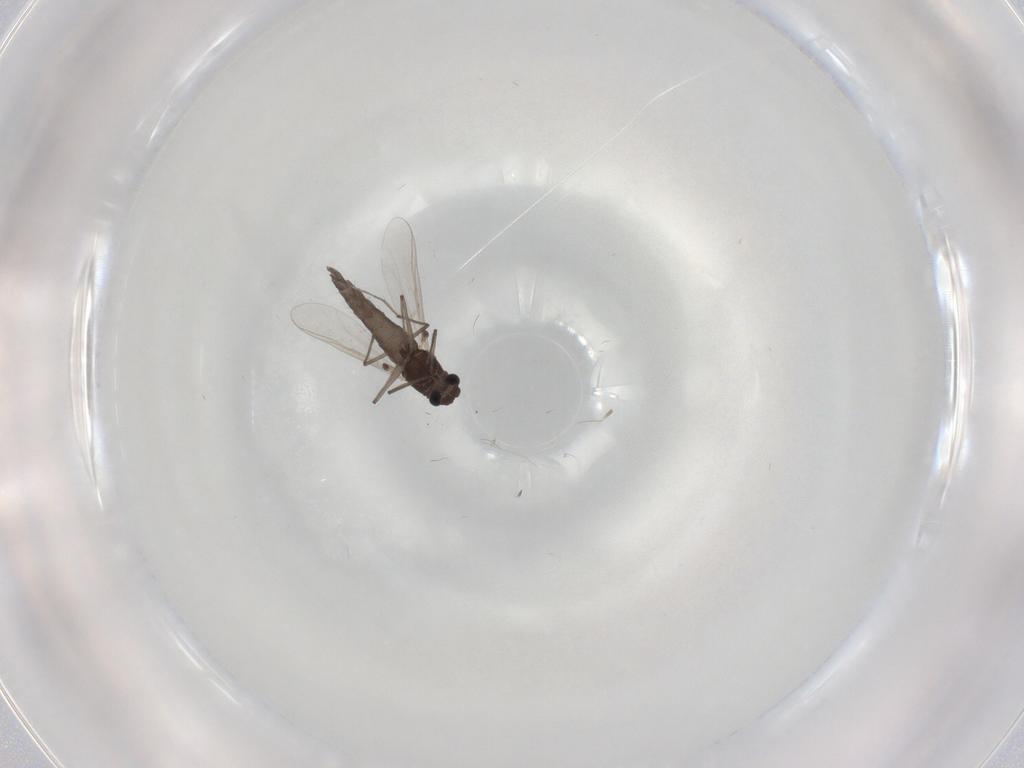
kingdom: Animalia
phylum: Arthropoda
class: Insecta
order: Diptera
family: Chironomidae
